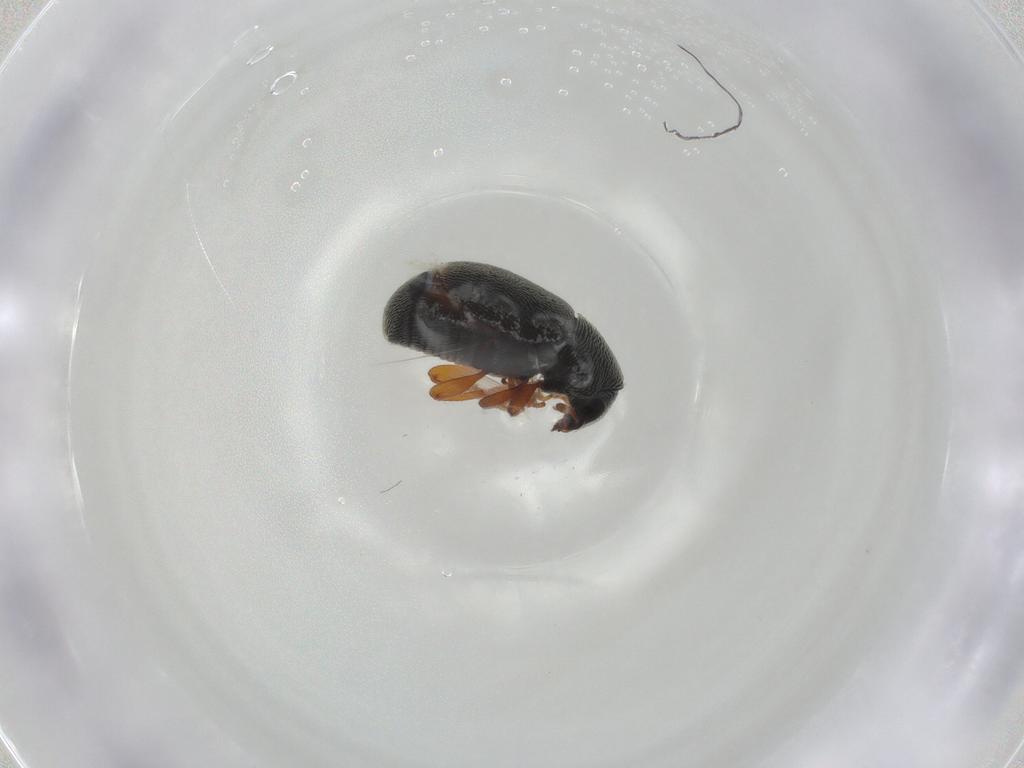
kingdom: Animalia
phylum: Arthropoda
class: Insecta
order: Coleoptera
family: Anthribidae
